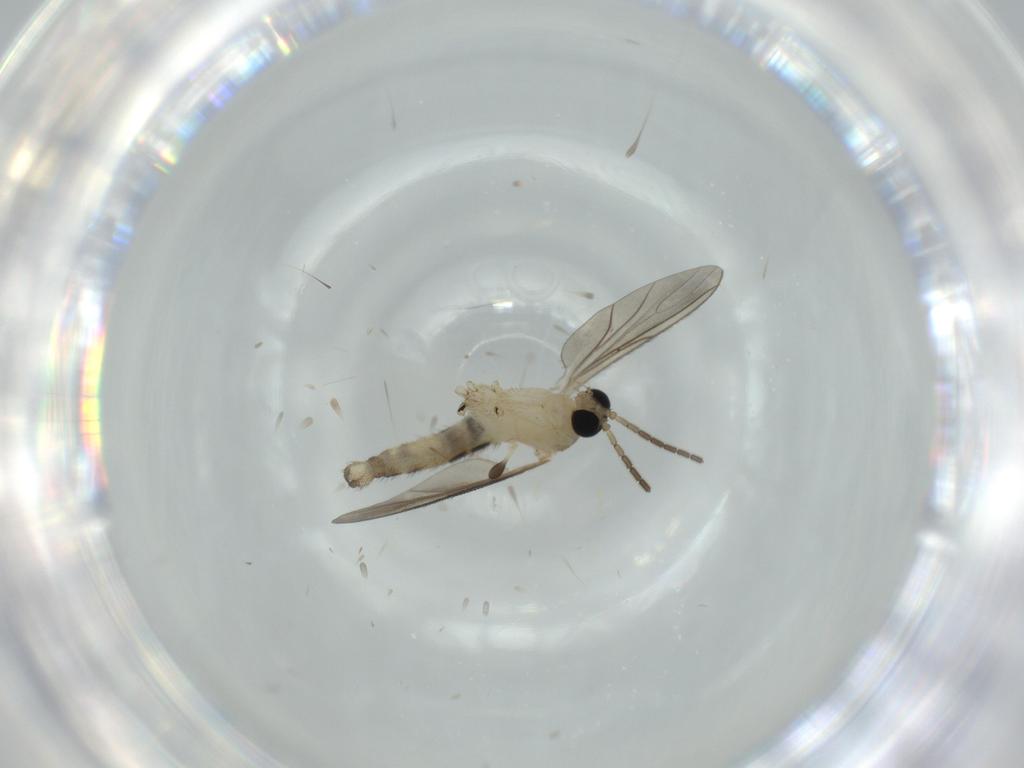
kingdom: Animalia
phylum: Arthropoda
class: Insecta
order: Diptera
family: Sciaridae
